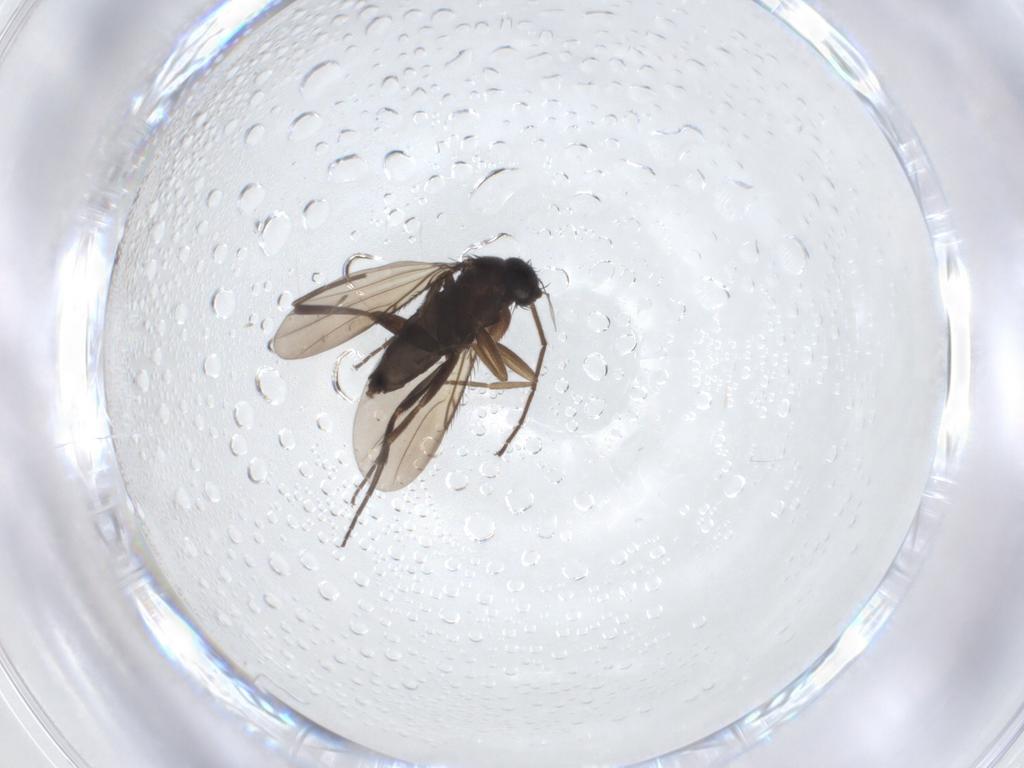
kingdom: Animalia
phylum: Arthropoda
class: Insecta
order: Diptera
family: Chironomidae
